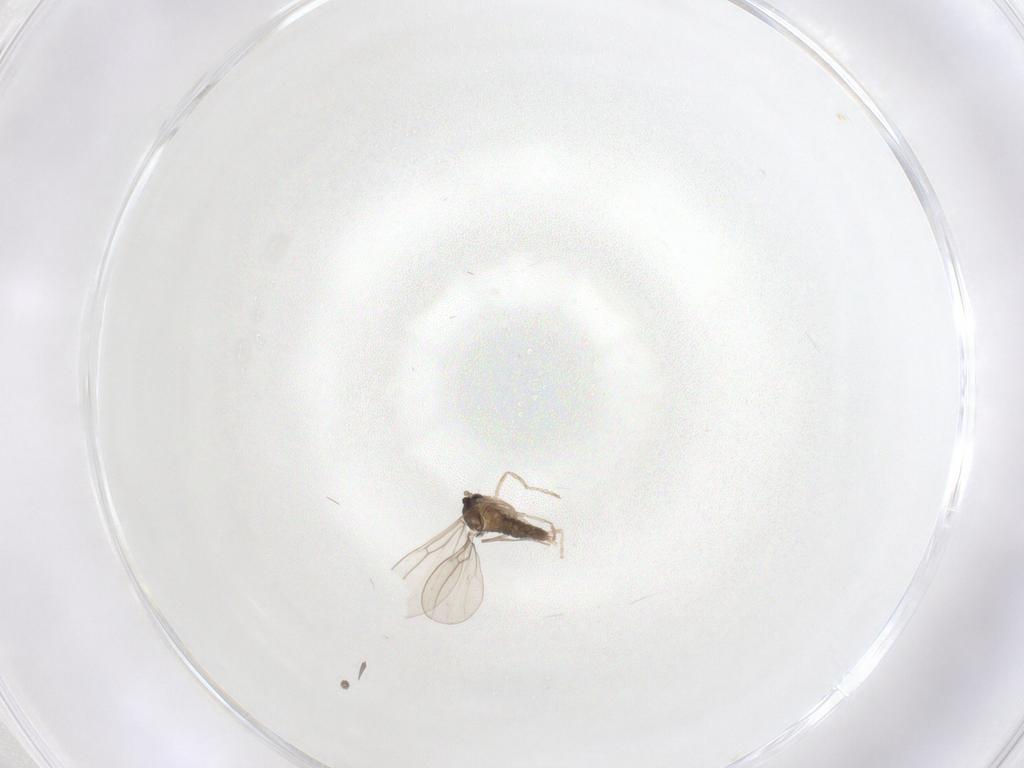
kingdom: Animalia
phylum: Arthropoda
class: Insecta
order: Diptera
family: Cecidomyiidae
